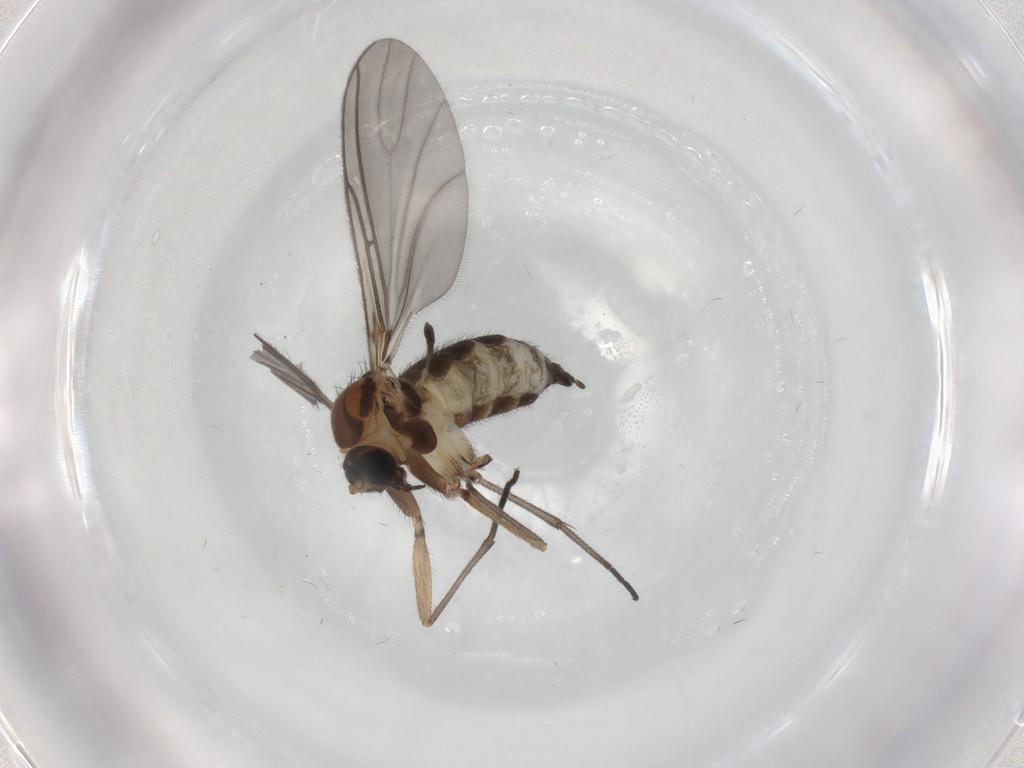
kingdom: Animalia
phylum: Arthropoda
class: Insecta
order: Diptera
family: Sciaridae
